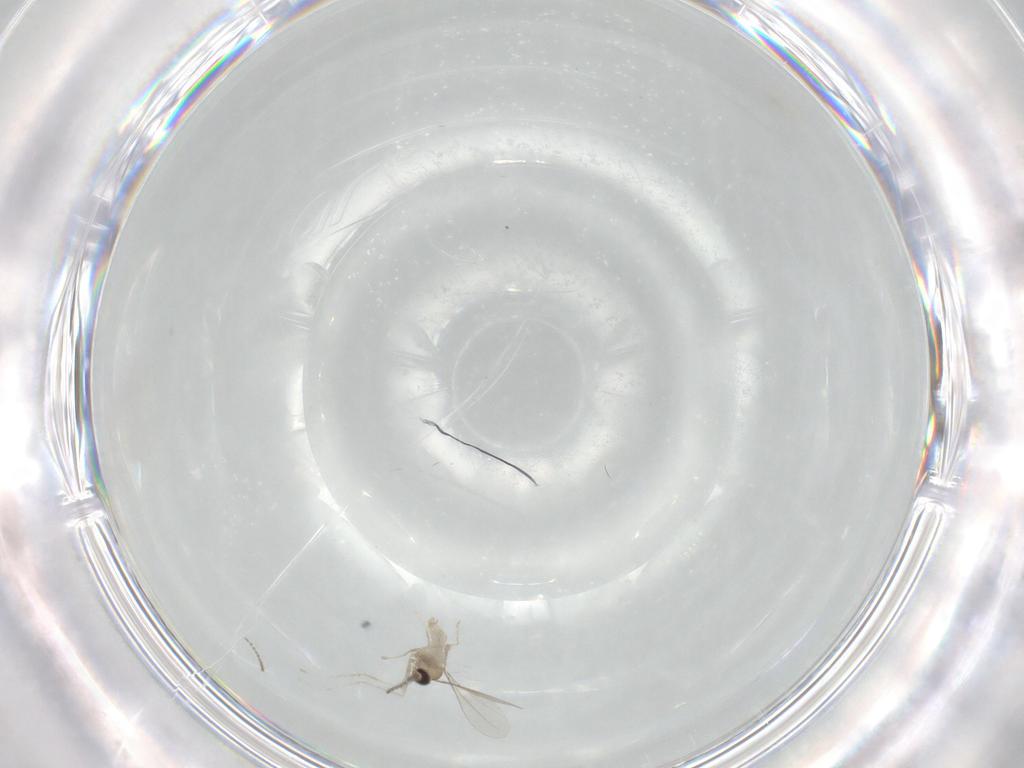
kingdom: Animalia
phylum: Arthropoda
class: Insecta
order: Diptera
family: Cecidomyiidae
